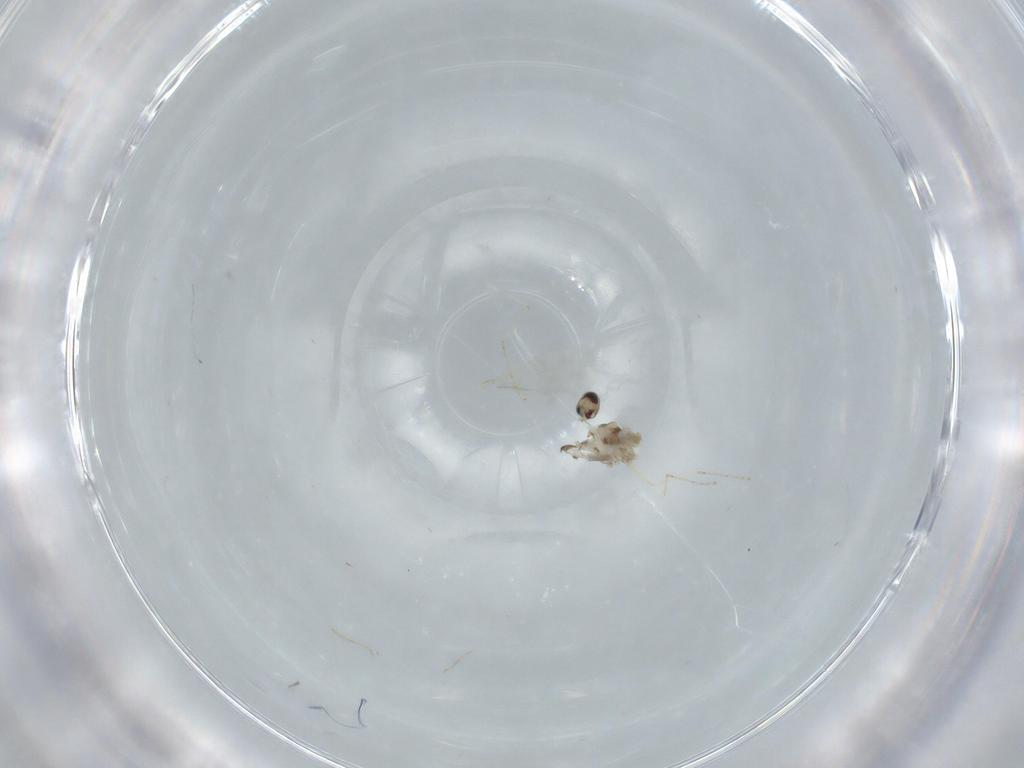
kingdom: Animalia
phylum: Arthropoda
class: Insecta
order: Diptera
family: Cecidomyiidae
